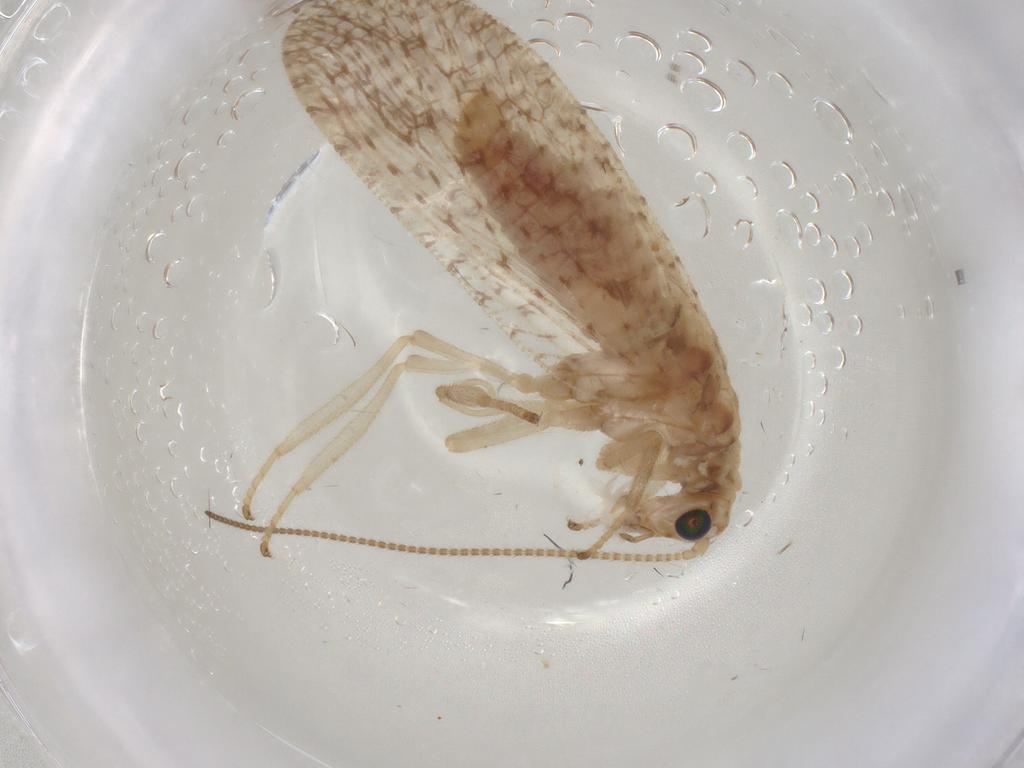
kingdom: Animalia
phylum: Arthropoda
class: Insecta
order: Neuroptera
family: Hemerobiidae
